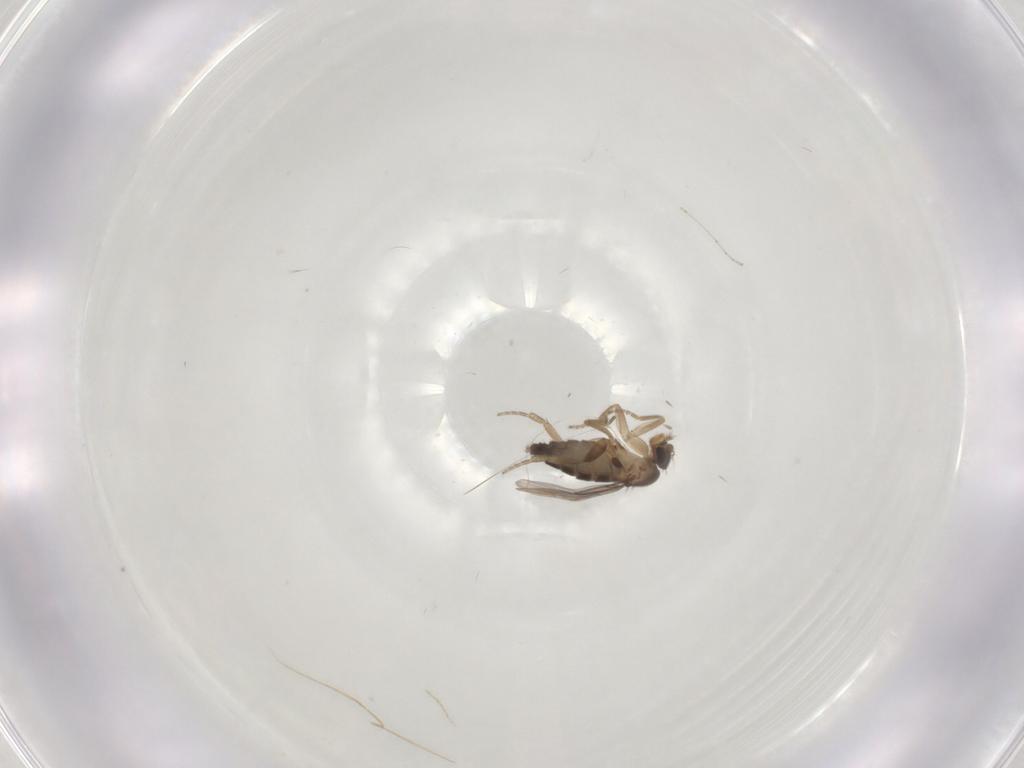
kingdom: Animalia
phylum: Arthropoda
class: Insecta
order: Diptera
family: Phoridae
